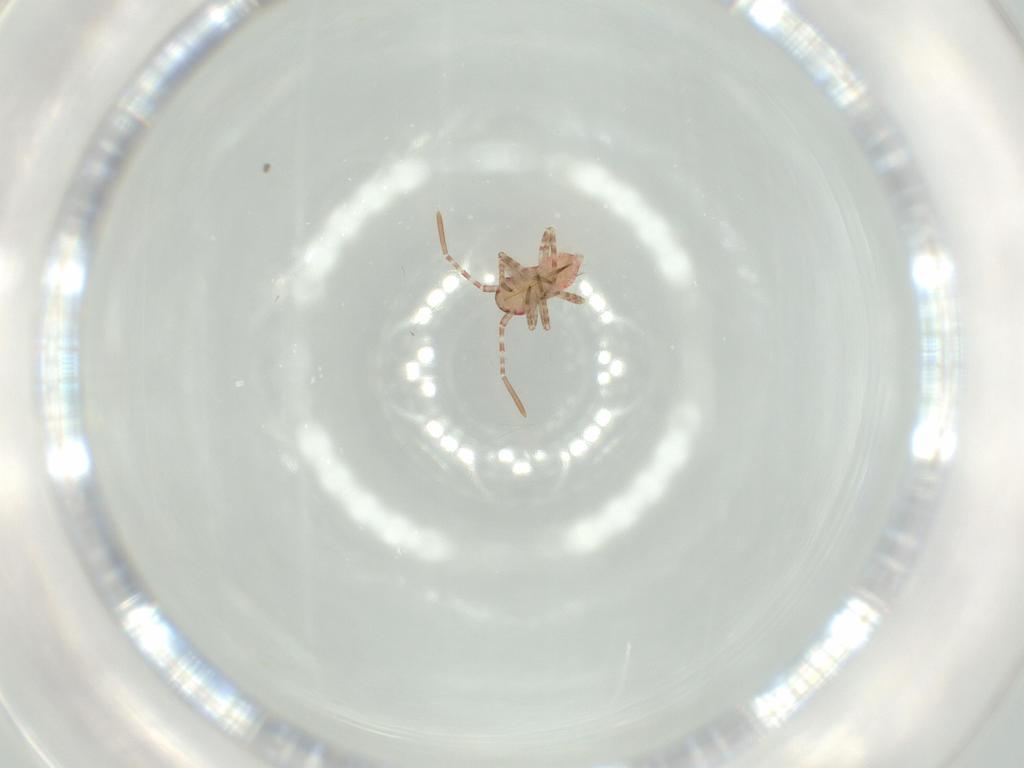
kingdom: Animalia
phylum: Arthropoda
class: Insecta
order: Hemiptera
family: Miridae
